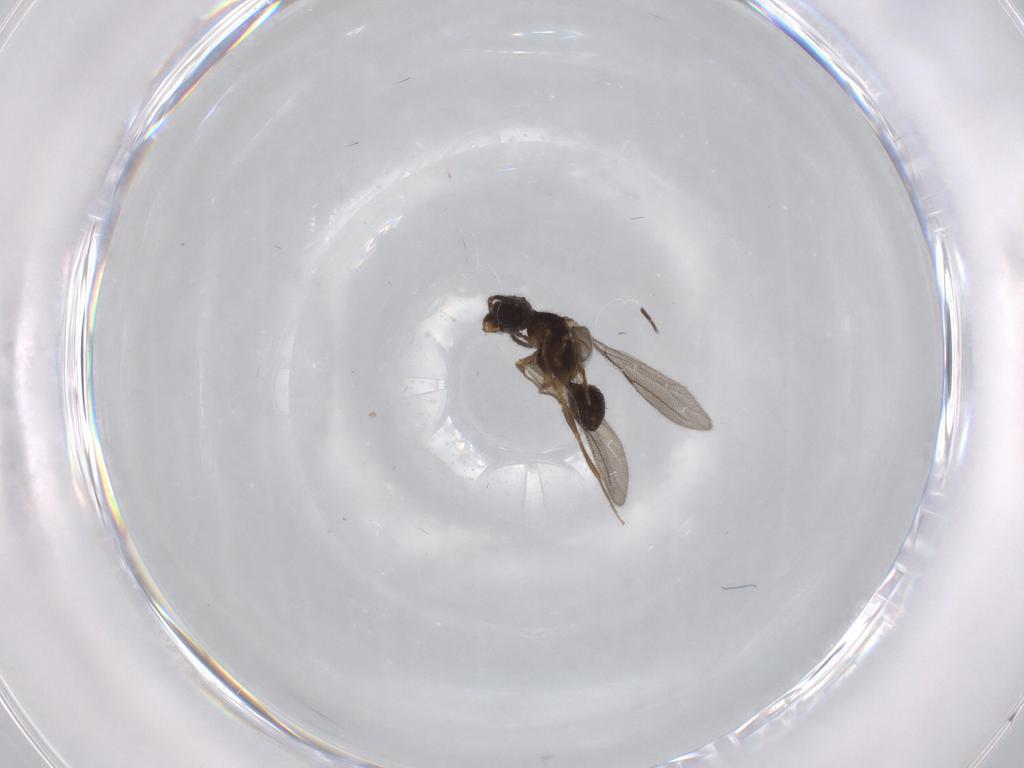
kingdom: Animalia
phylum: Arthropoda
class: Insecta
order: Hymenoptera
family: Bethylidae
